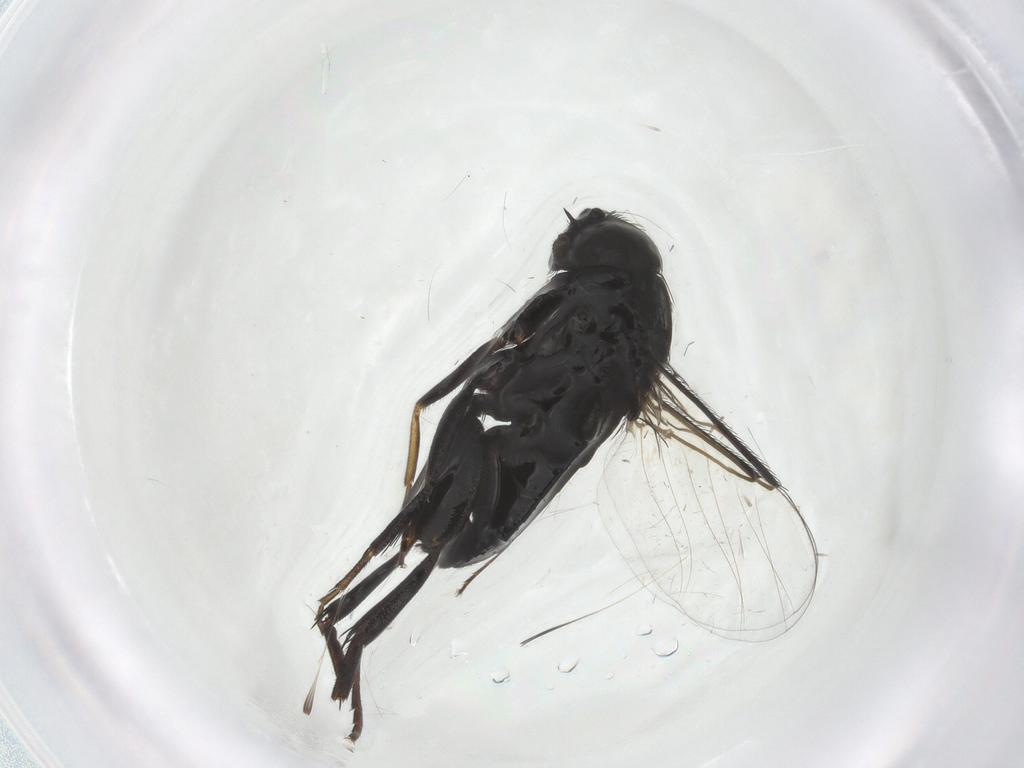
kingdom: Animalia
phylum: Arthropoda
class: Insecta
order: Diptera
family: Phoridae
